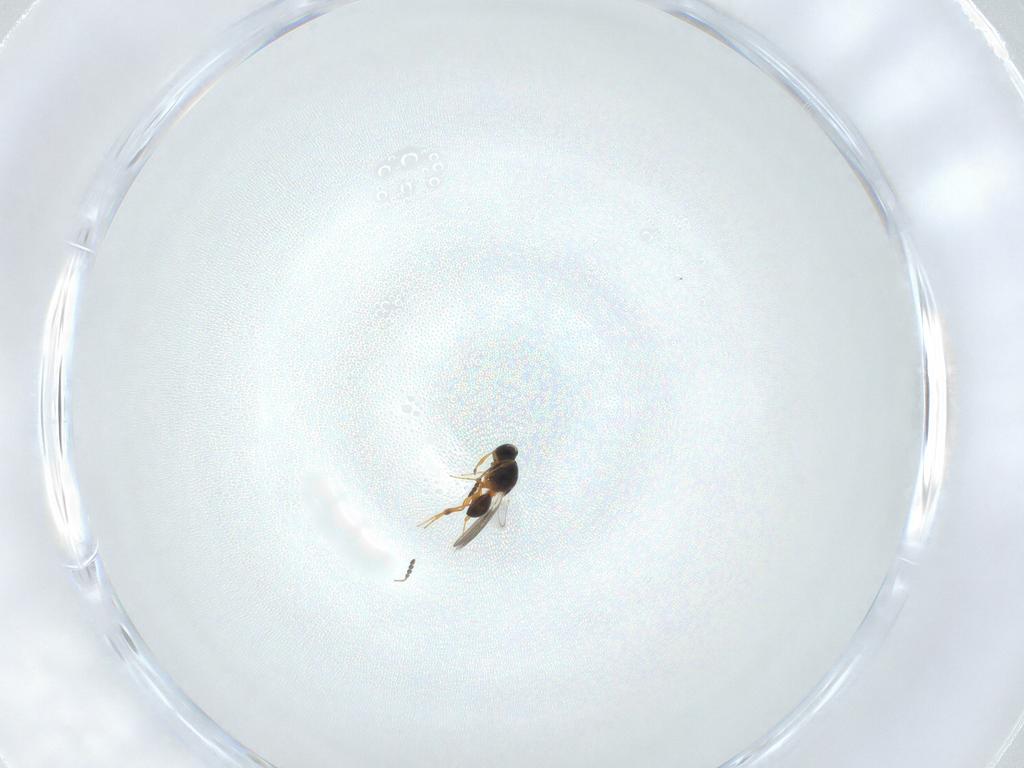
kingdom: Animalia
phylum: Arthropoda
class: Insecta
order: Hymenoptera
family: Platygastridae
